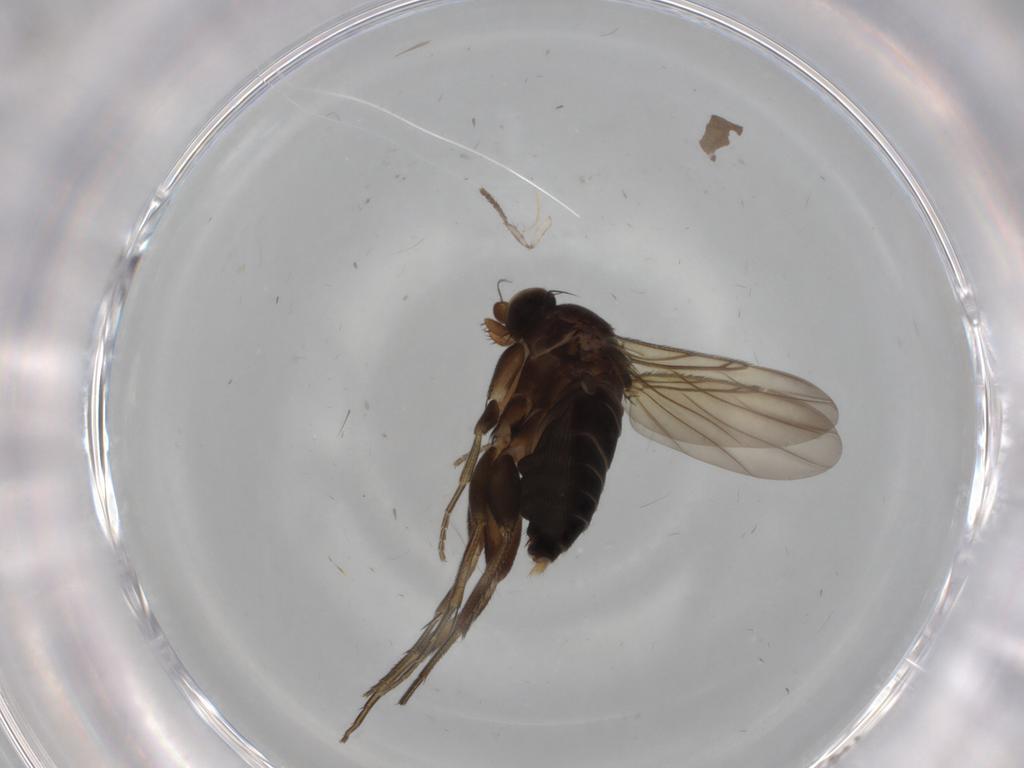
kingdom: Animalia
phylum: Arthropoda
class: Insecta
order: Diptera
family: Phoridae
